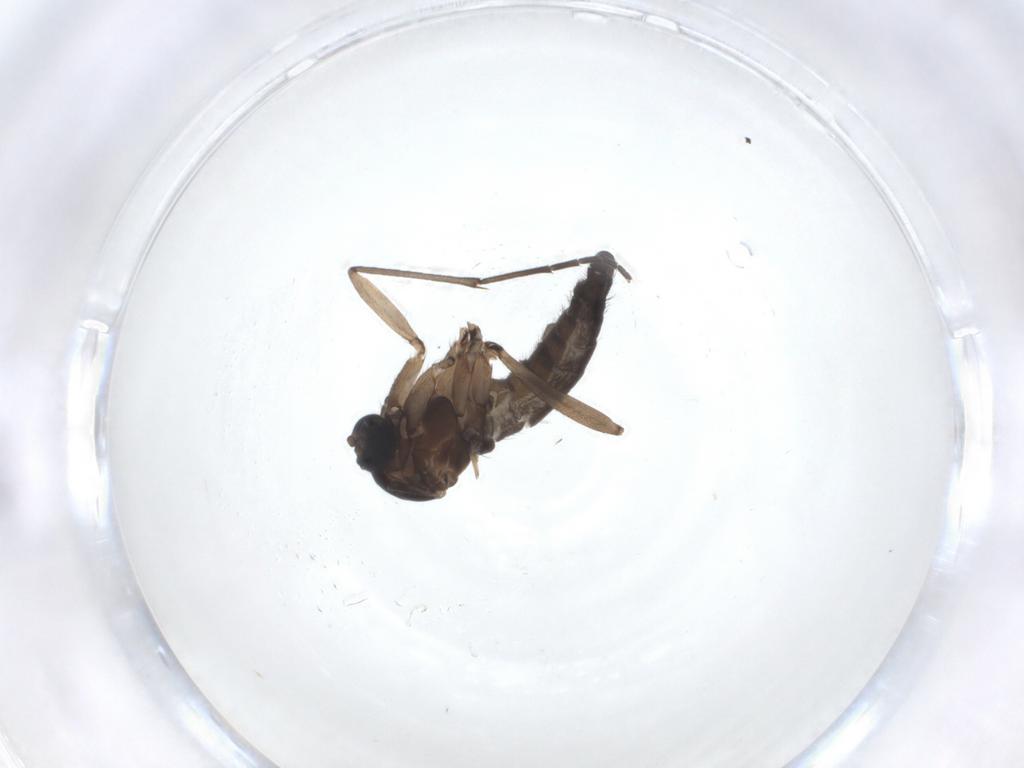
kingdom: Animalia
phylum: Arthropoda
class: Insecta
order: Diptera
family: Sciaridae
